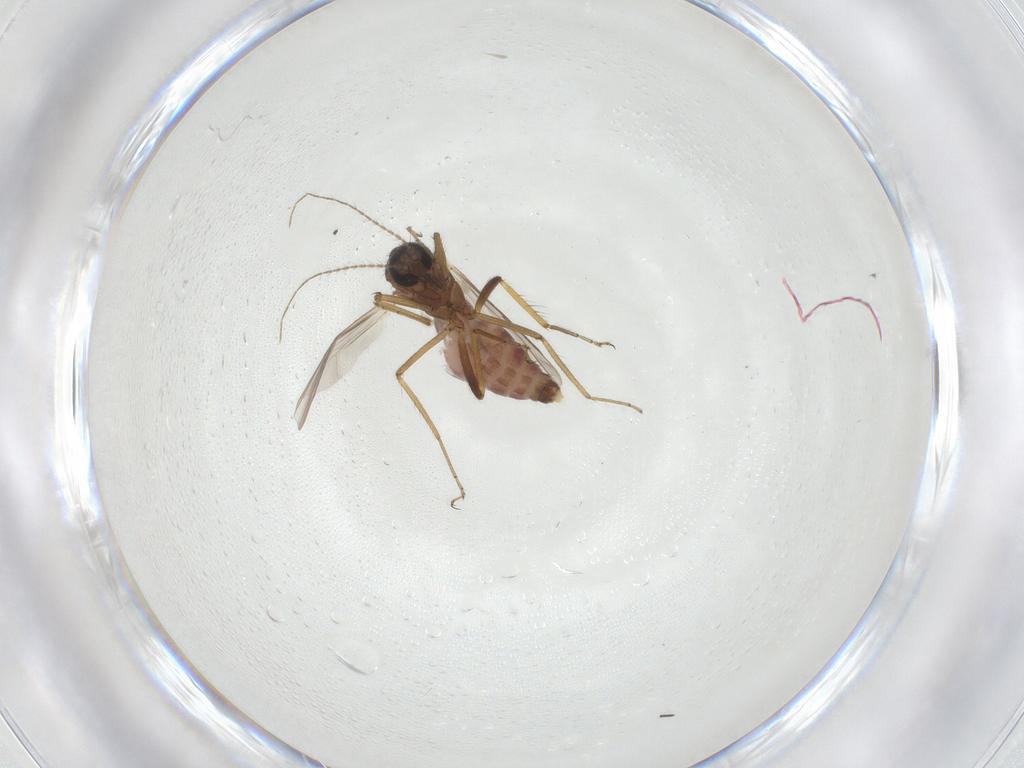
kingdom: Animalia
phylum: Arthropoda
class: Insecta
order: Diptera
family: Ceratopogonidae
